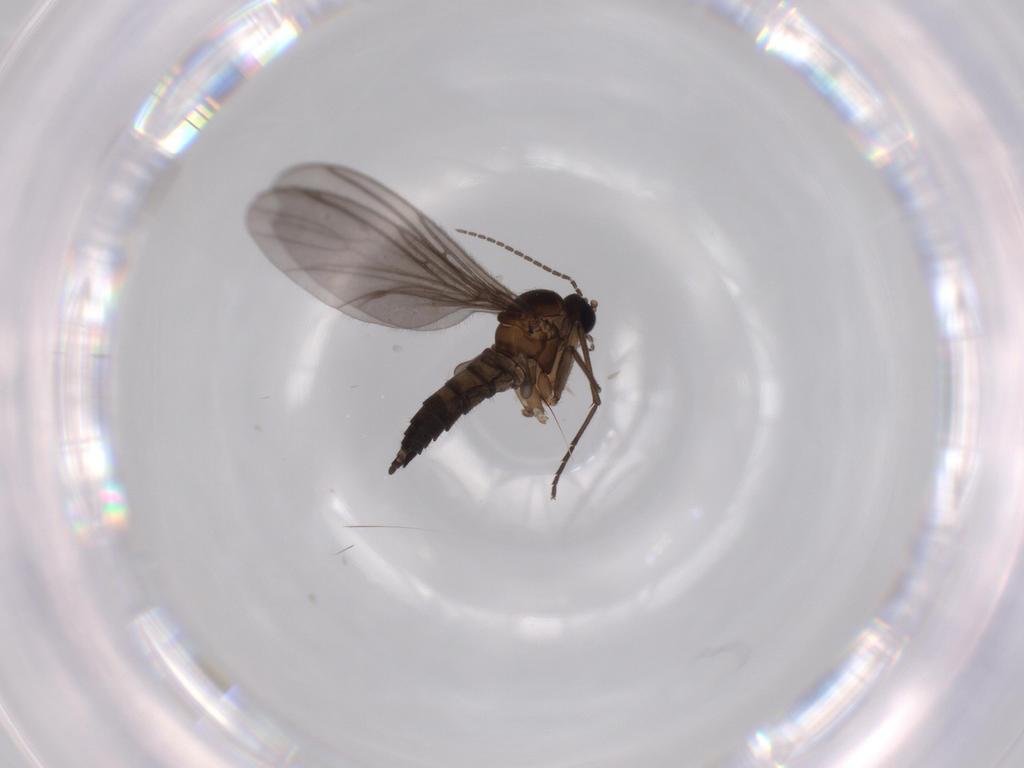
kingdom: Animalia
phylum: Arthropoda
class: Insecta
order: Diptera
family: Sciaridae
